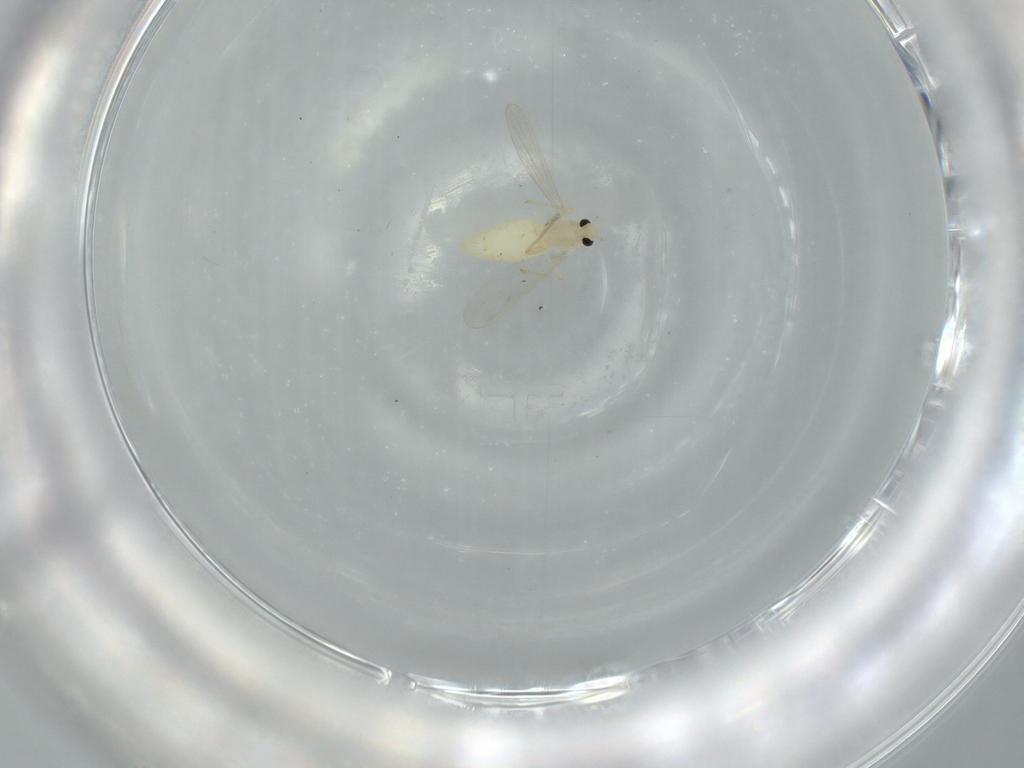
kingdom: Animalia
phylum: Arthropoda
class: Insecta
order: Diptera
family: Chironomidae
